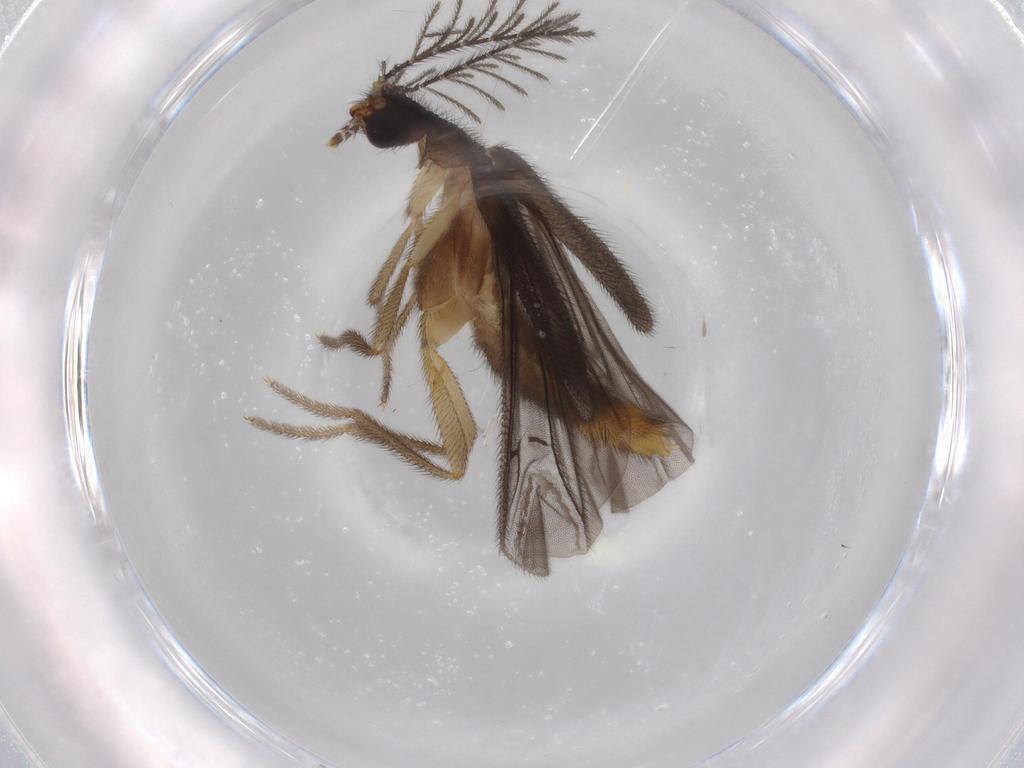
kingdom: Animalia
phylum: Arthropoda
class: Insecta
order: Coleoptera
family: Phengodidae
